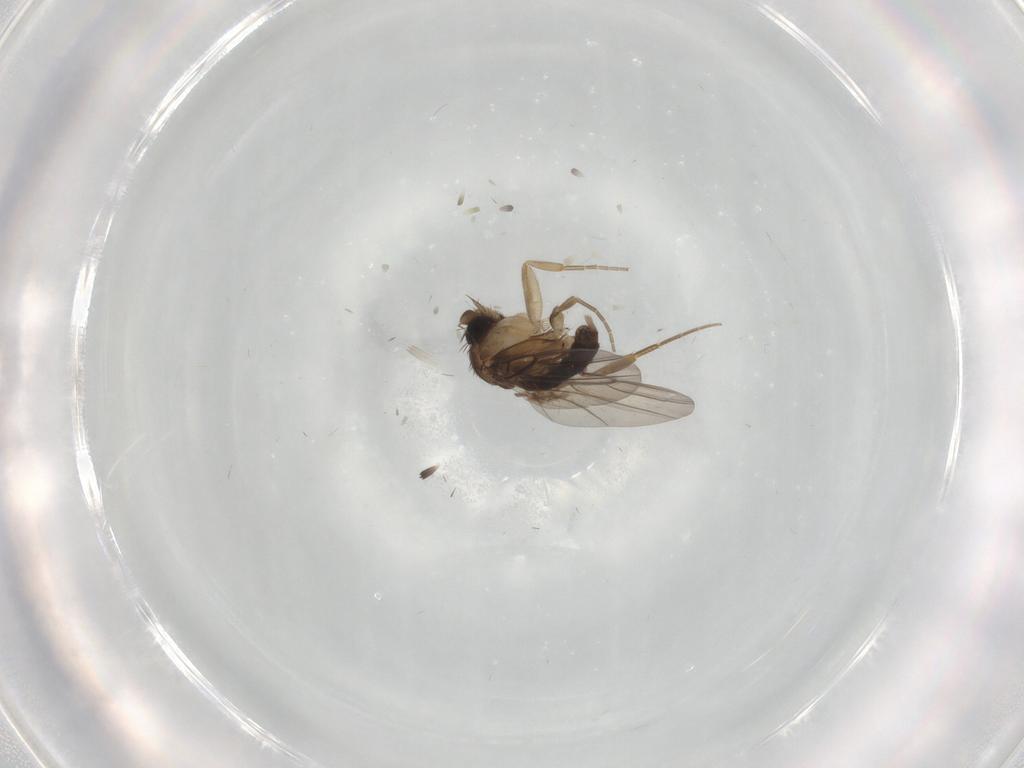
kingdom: Animalia
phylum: Arthropoda
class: Insecta
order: Diptera
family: Phoridae
